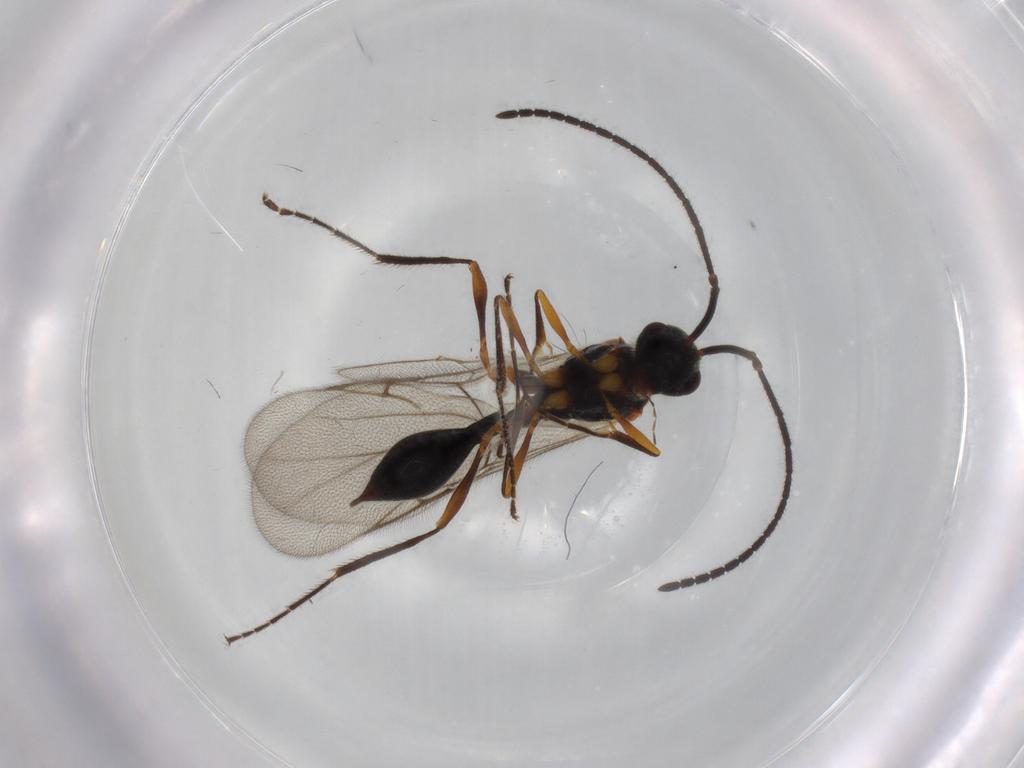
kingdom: Animalia
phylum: Arthropoda
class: Insecta
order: Hymenoptera
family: Diapriidae
